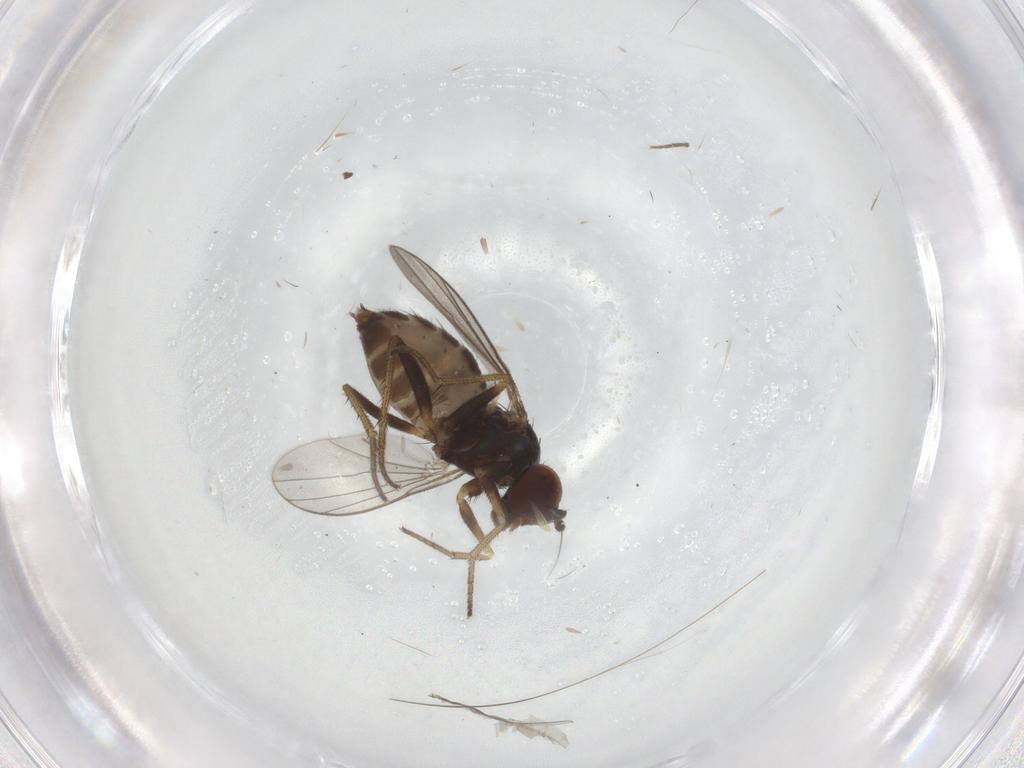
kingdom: Animalia
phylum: Arthropoda
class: Insecta
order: Diptera
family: Dolichopodidae
